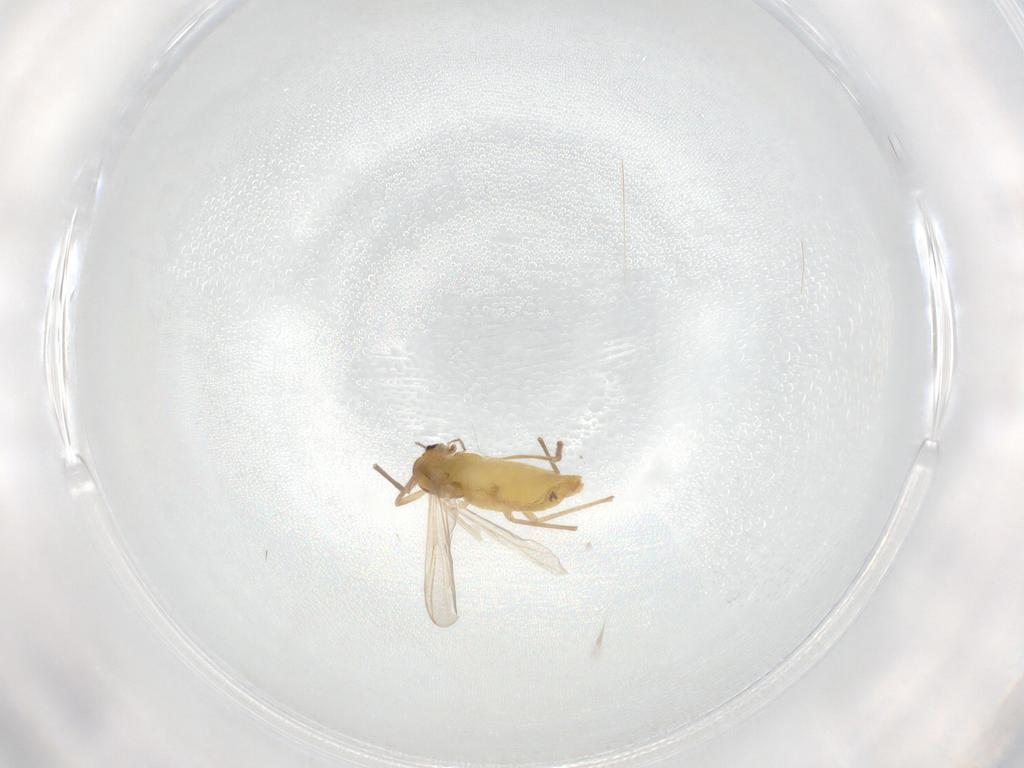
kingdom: Animalia
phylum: Arthropoda
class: Insecta
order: Diptera
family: Chironomidae
